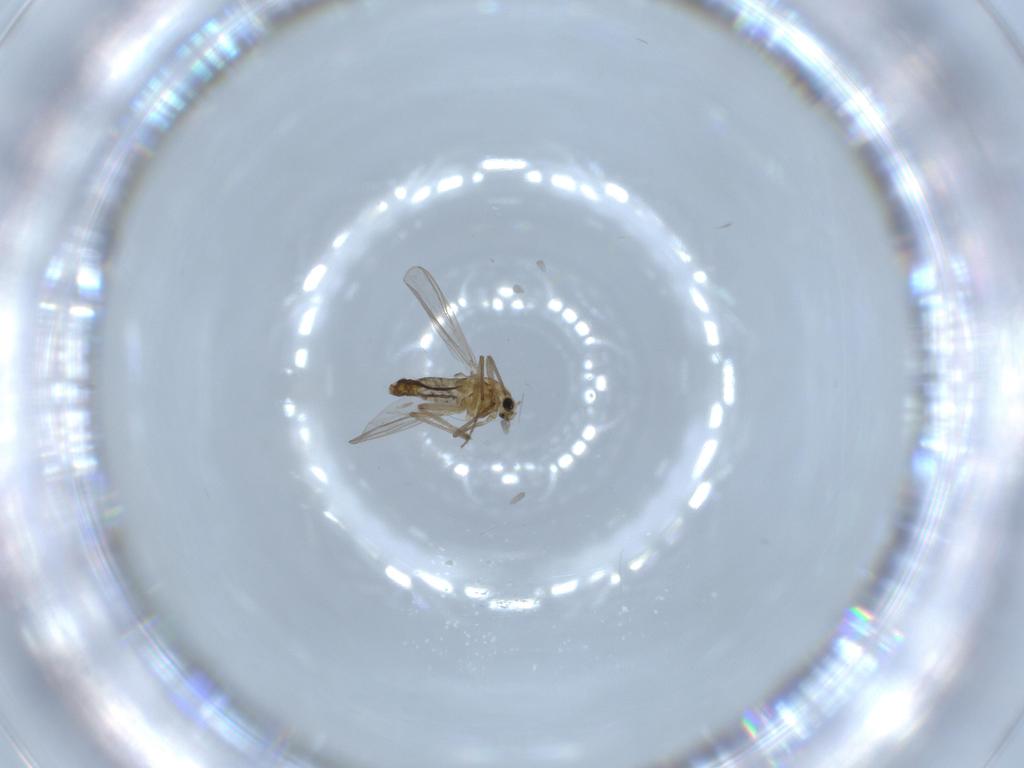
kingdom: Animalia
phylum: Arthropoda
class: Insecta
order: Diptera
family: Chironomidae
